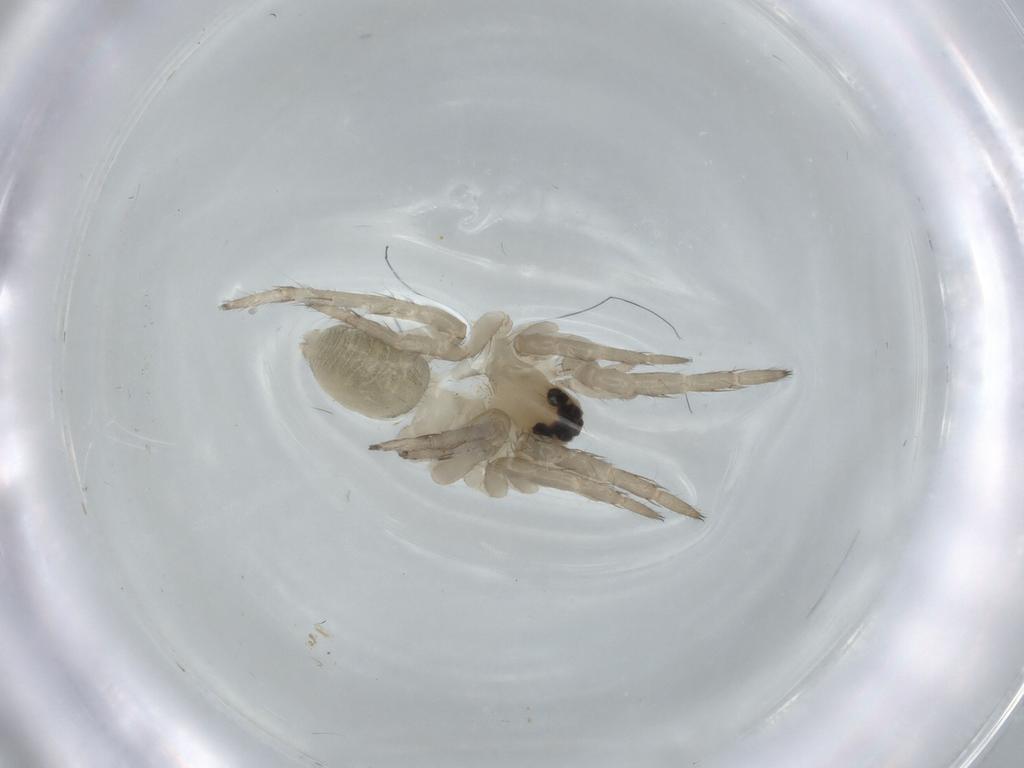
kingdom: Animalia
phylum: Arthropoda
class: Arachnida
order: Araneae
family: Lycosidae
